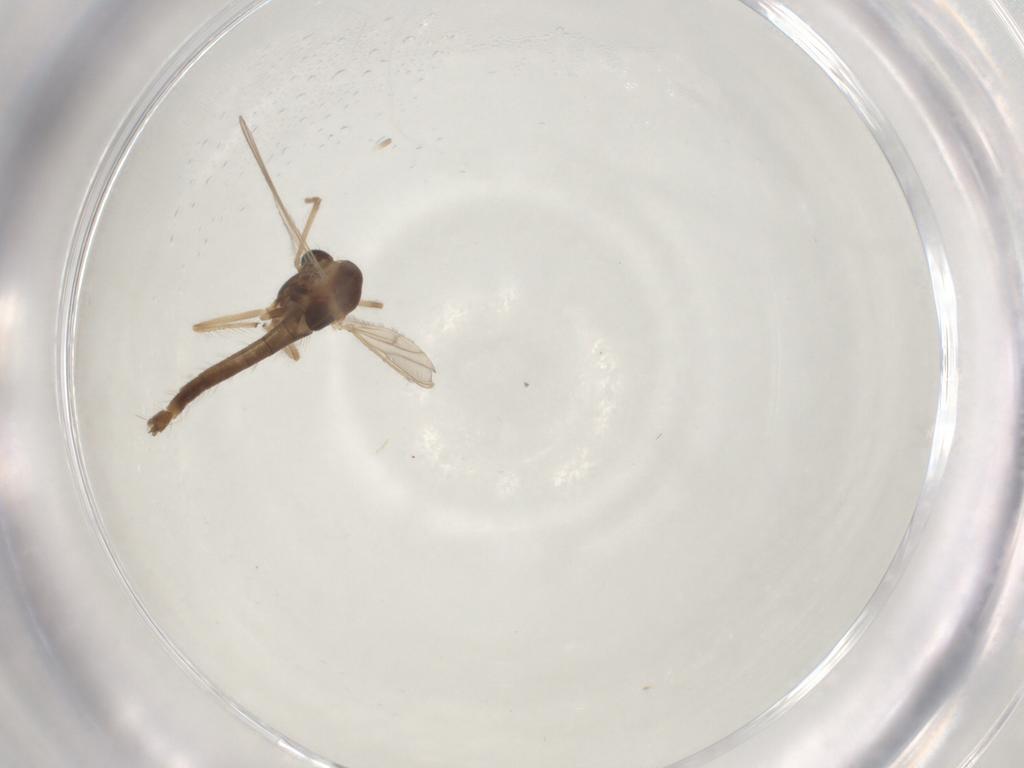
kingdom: Animalia
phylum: Arthropoda
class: Insecta
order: Diptera
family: Chironomidae
